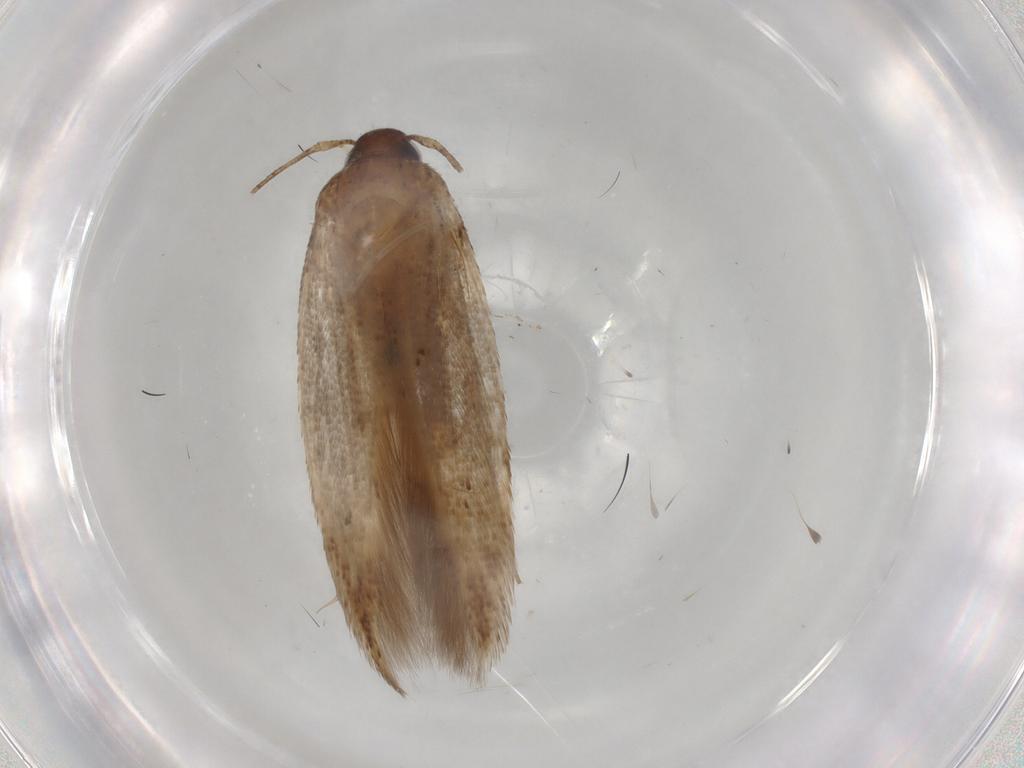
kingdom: Animalia
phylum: Arthropoda
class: Insecta
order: Lepidoptera
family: Cosmopterigidae
